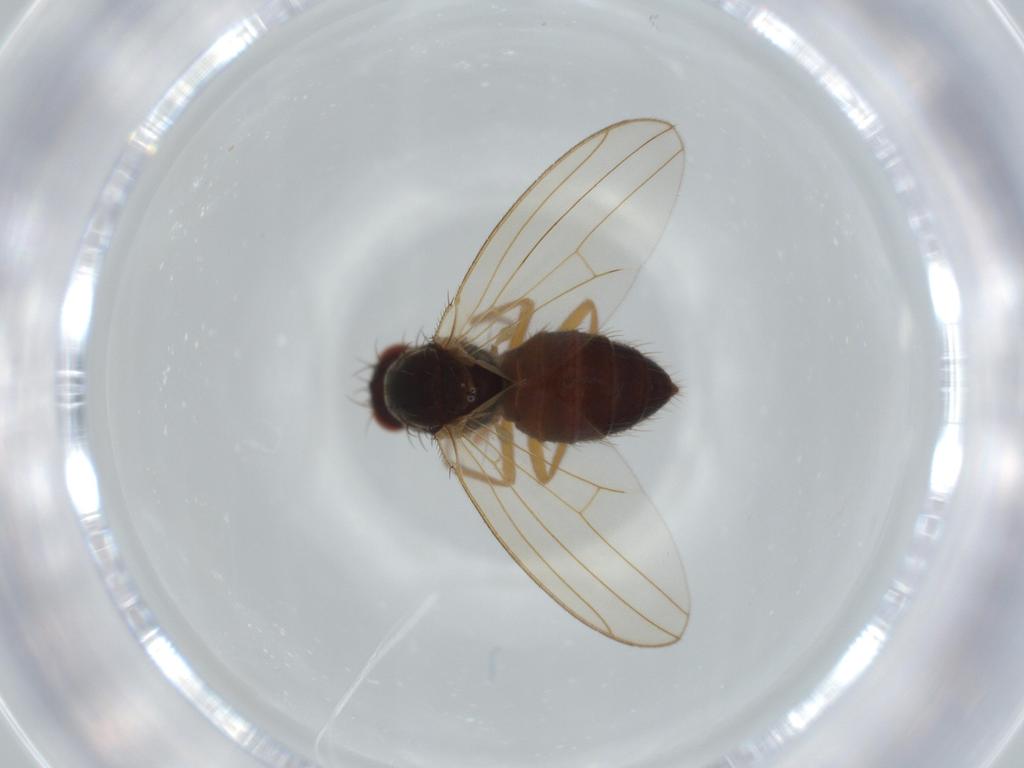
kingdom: Animalia
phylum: Arthropoda
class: Insecta
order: Diptera
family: Drosophilidae
